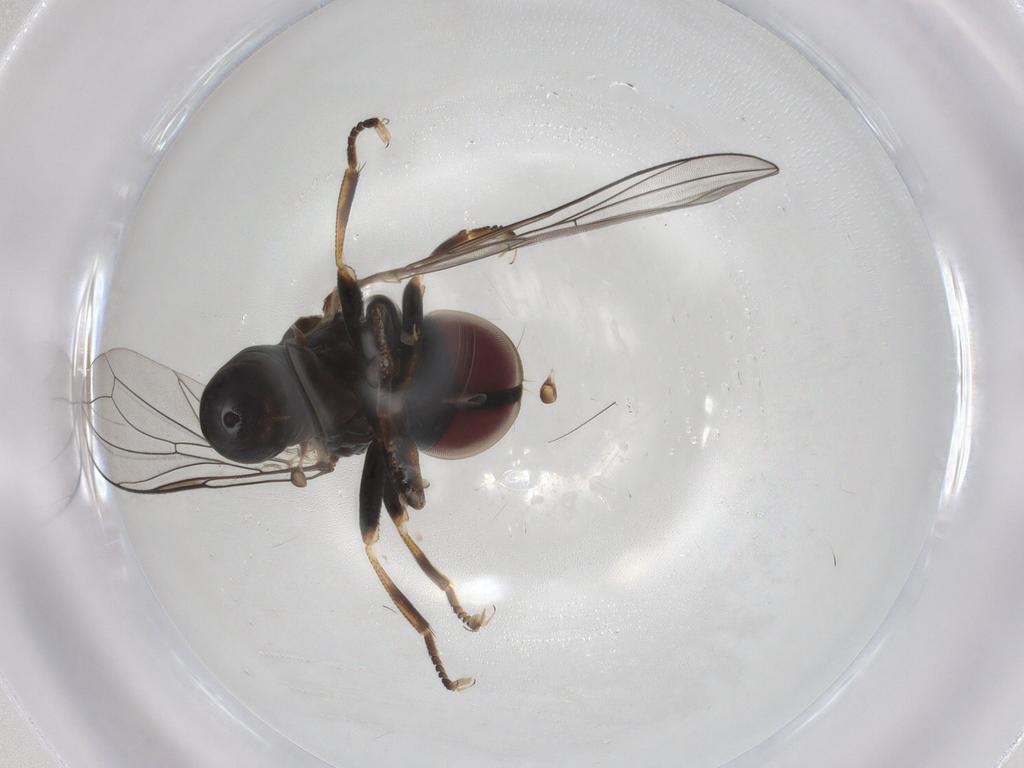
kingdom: Animalia
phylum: Arthropoda
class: Insecta
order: Diptera
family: Pipunculidae
